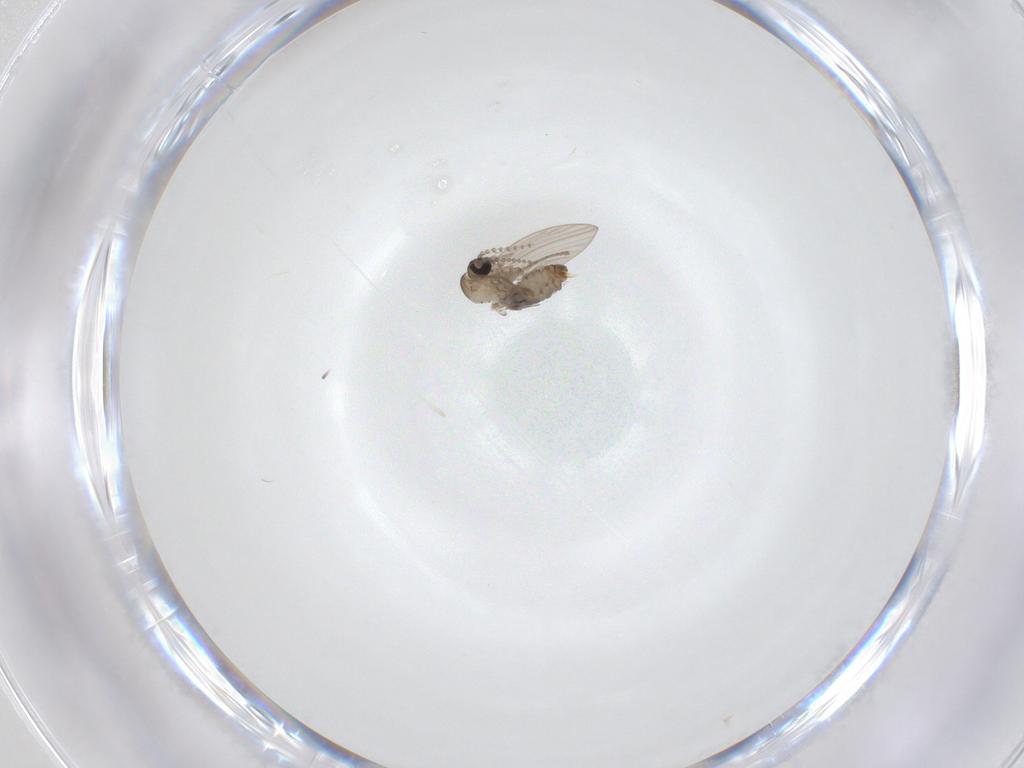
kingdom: Animalia
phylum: Arthropoda
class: Insecta
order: Diptera
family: Psychodidae
